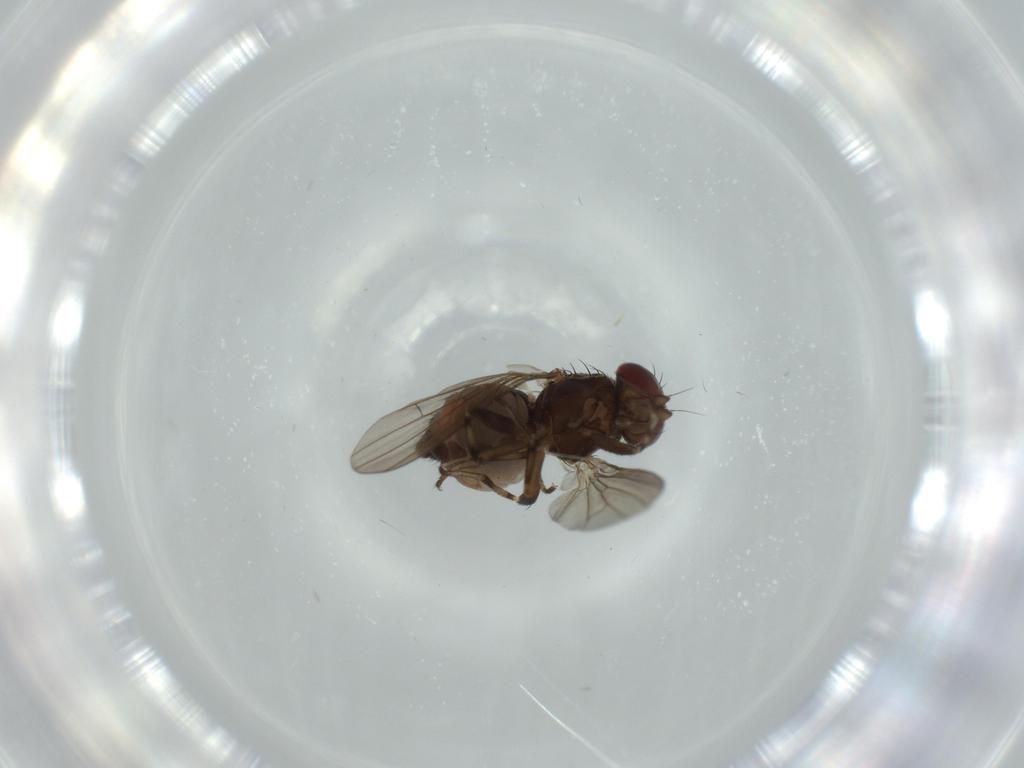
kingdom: Animalia
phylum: Arthropoda
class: Insecta
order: Diptera
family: Heleomyzidae
